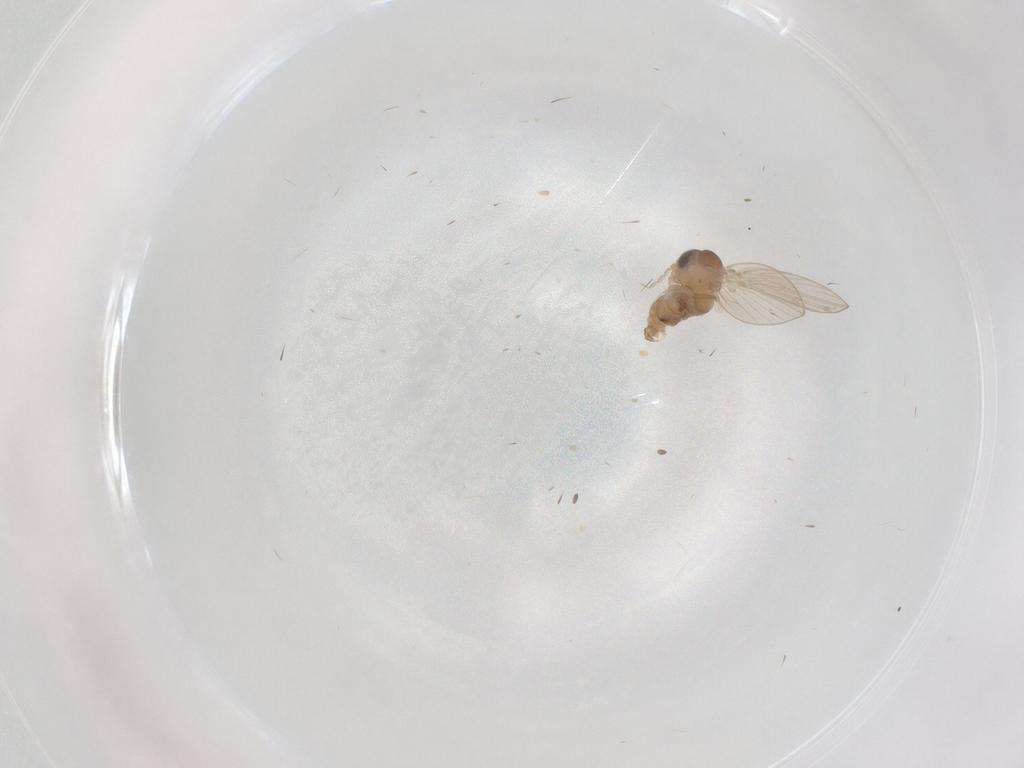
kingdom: Animalia
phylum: Arthropoda
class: Insecta
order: Diptera
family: Psychodidae
